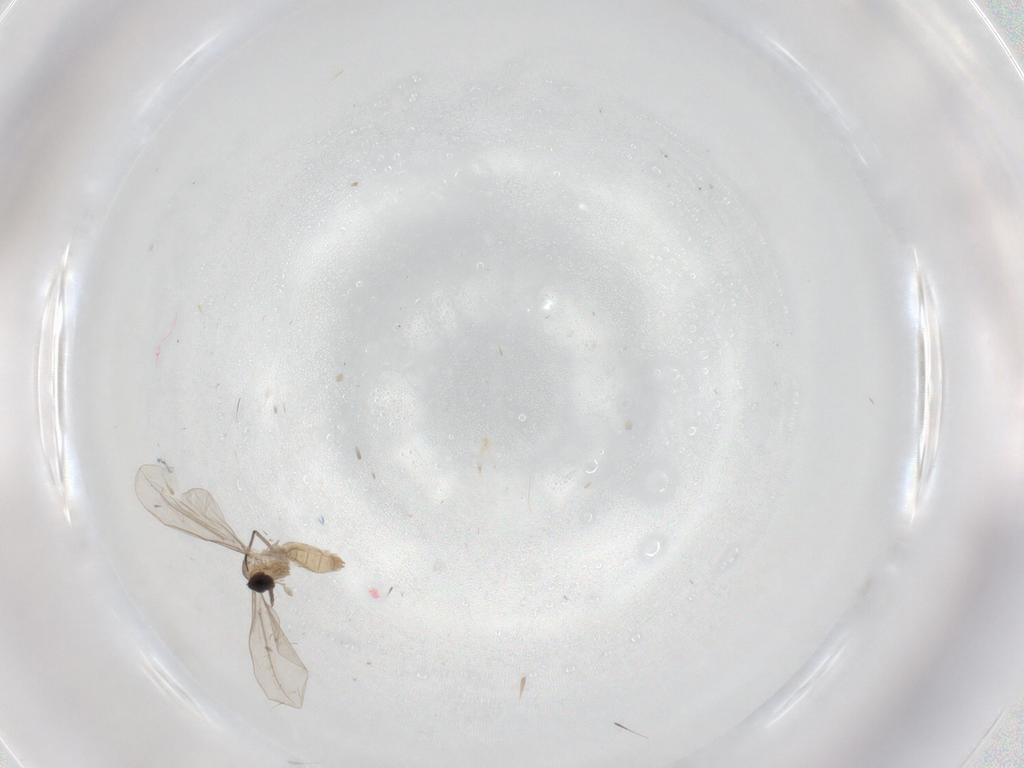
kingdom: Animalia
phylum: Arthropoda
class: Insecta
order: Diptera
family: Cecidomyiidae
